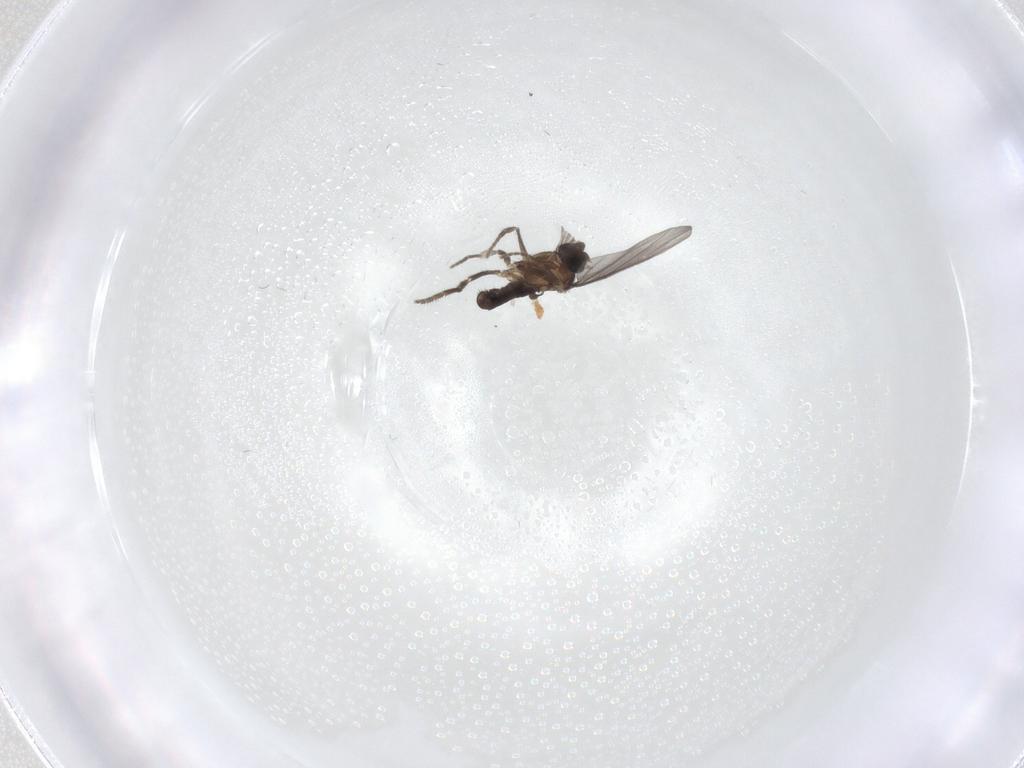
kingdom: Animalia
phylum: Arthropoda
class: Insecta
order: Diptera
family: Phoridae
